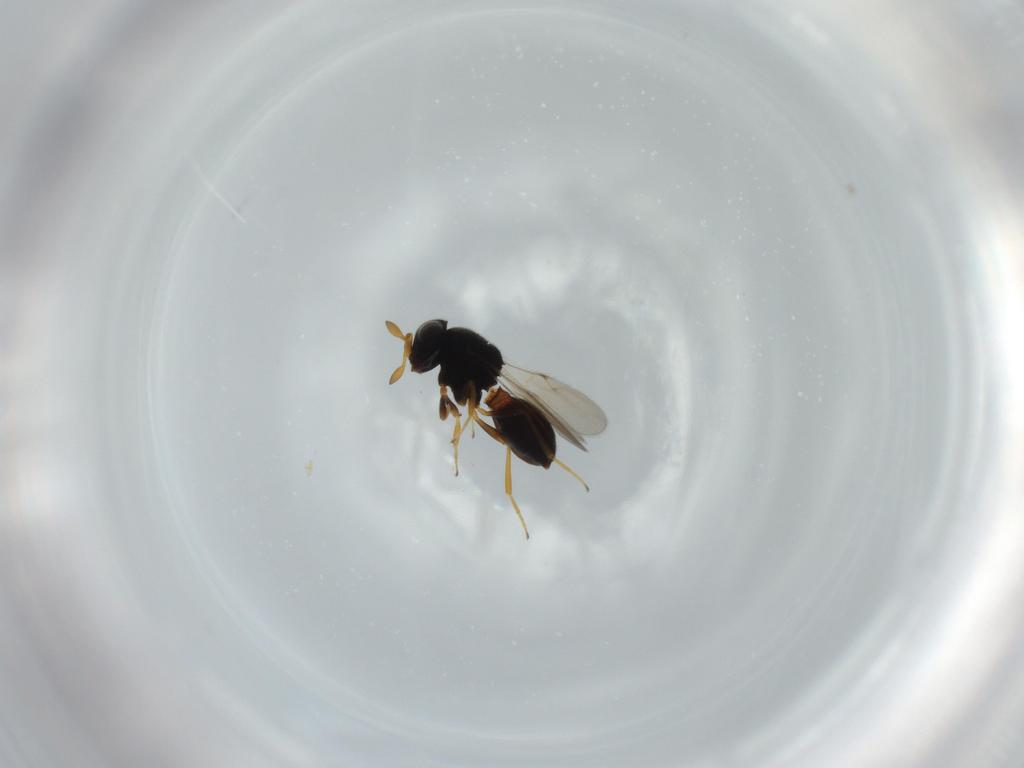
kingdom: Animalia
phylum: Arthropoda
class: Insecta
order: Hymenoptera
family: Scelionidae
